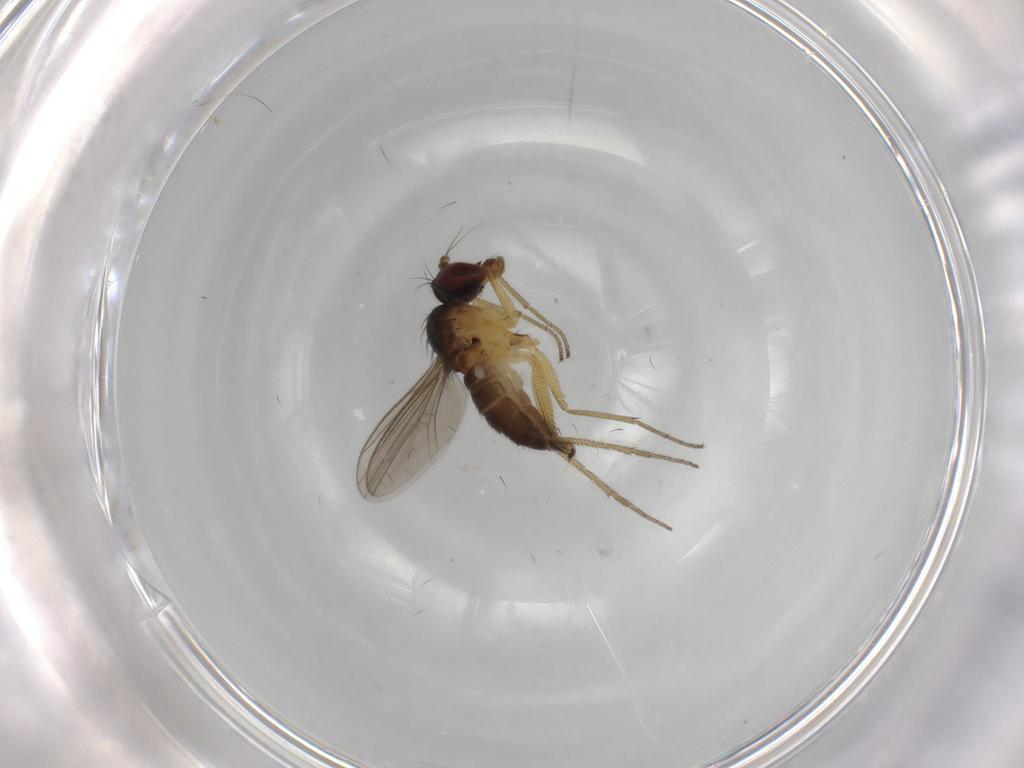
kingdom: Animalia
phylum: Arthropoda
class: Insecta
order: Diptera
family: Dolichopodidae
